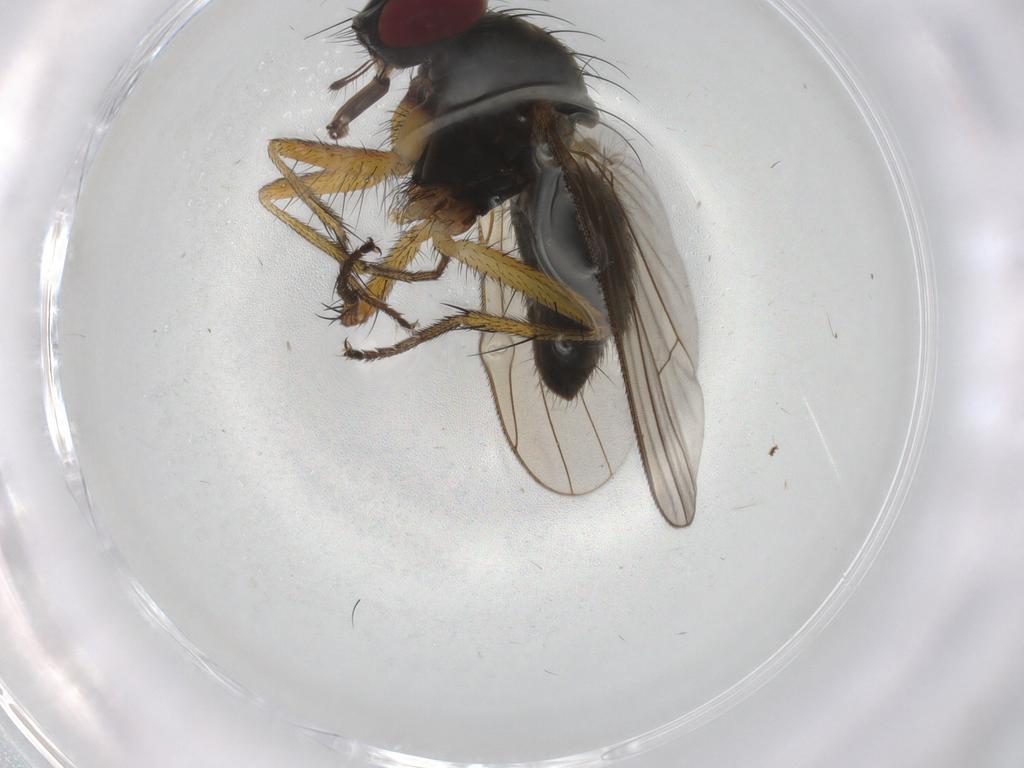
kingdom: Animalia
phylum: Arthropoda
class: Insecta
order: Diptera
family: Muscidae
